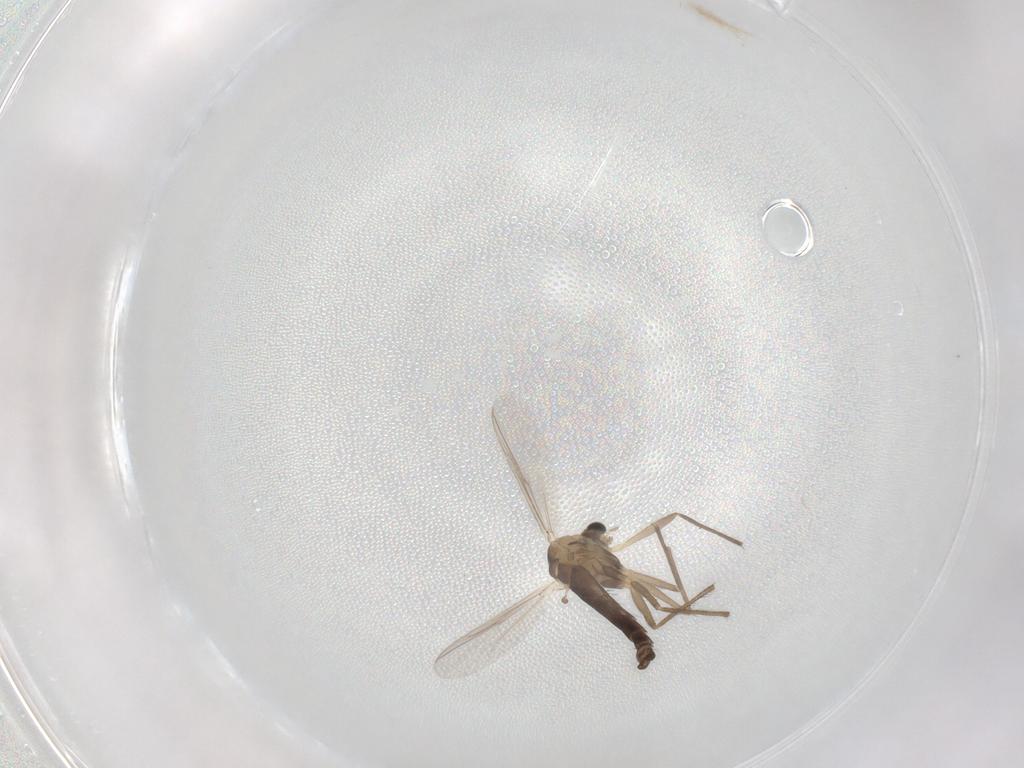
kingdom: Animalia
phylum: Arthropoda
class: Insecta
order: Diptera
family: Chironomidae
